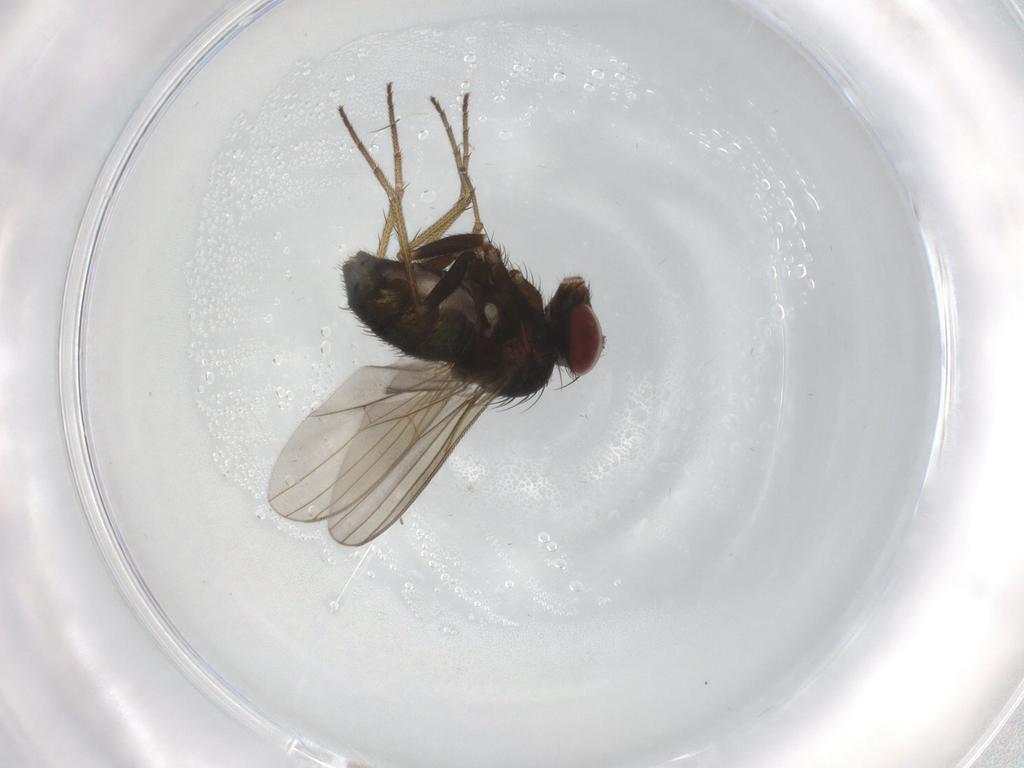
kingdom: Animalia
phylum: Arthropoda
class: Insecta
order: Diptera
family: Dolichopodidae
